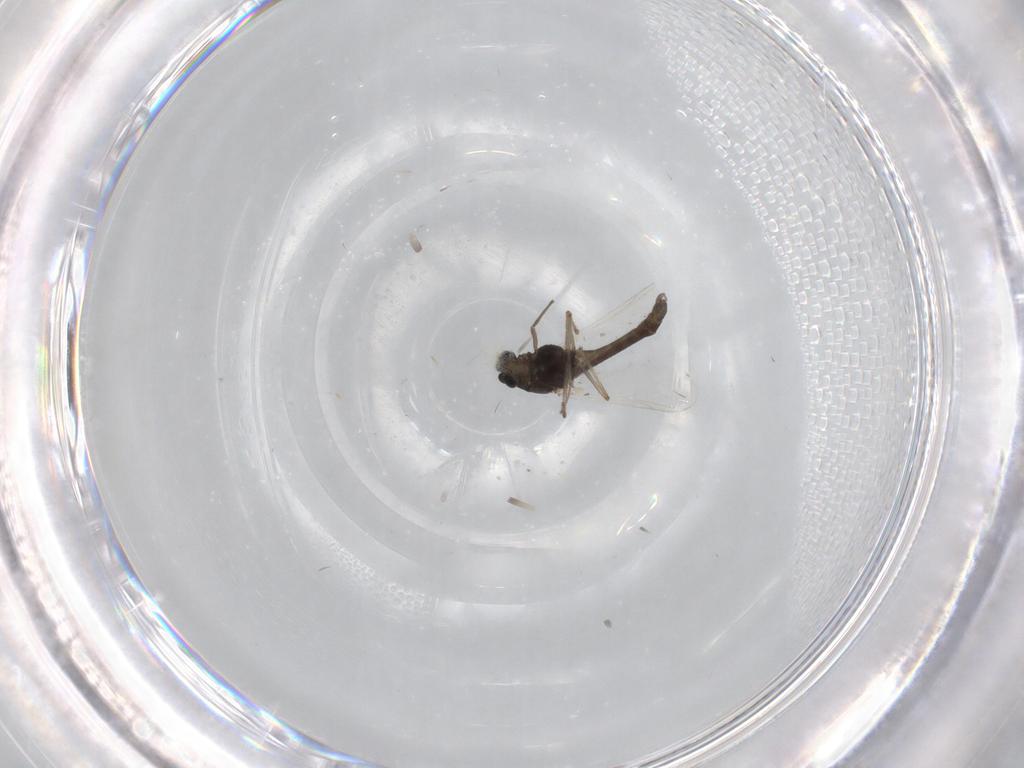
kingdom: Animalia
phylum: Arthropoda
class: Insecta
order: Diptera
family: Chironomidae
